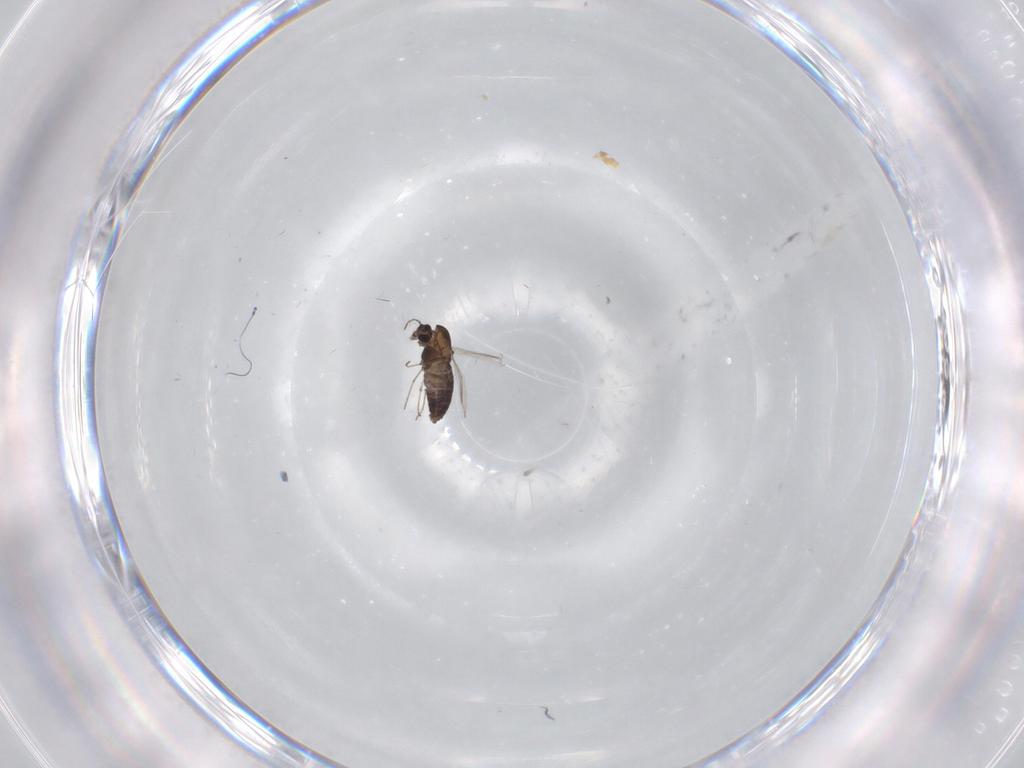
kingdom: Animalia
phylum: Arthropoda
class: Insecta
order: Diptera
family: Chironomidae
